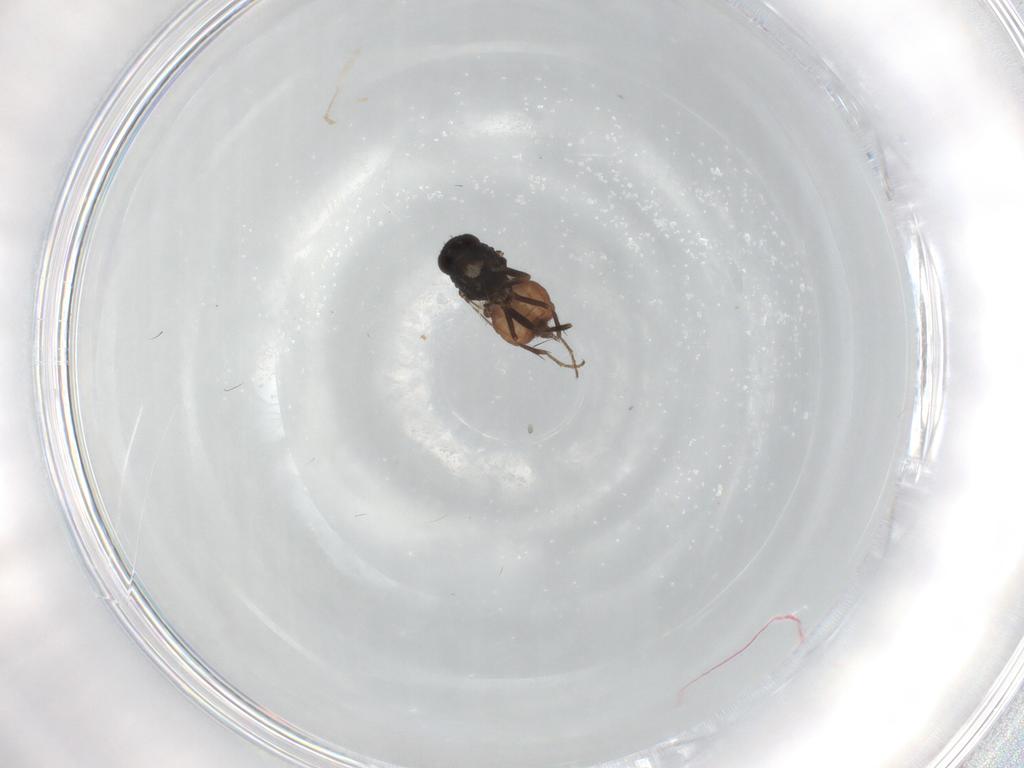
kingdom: Animalia
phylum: Arthropoda
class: Insecta
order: Diptera
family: Sphaeroceridae
